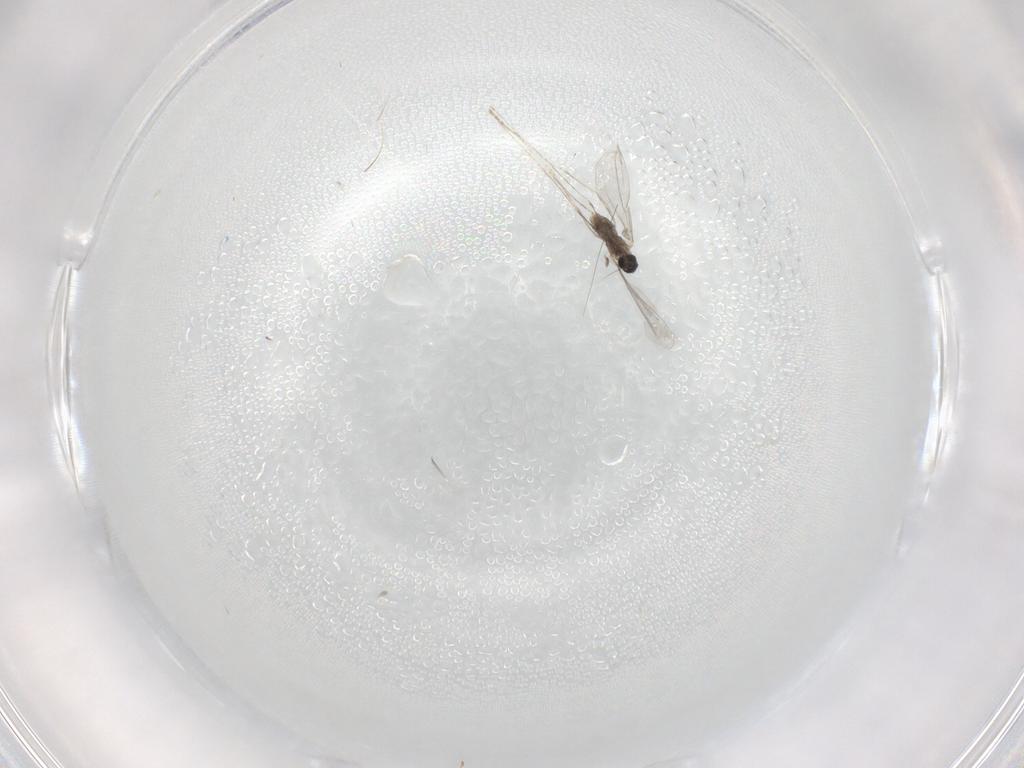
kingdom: Animalia
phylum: Arthropoda
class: Insecta
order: Diptera
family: Cecidomyiidae
